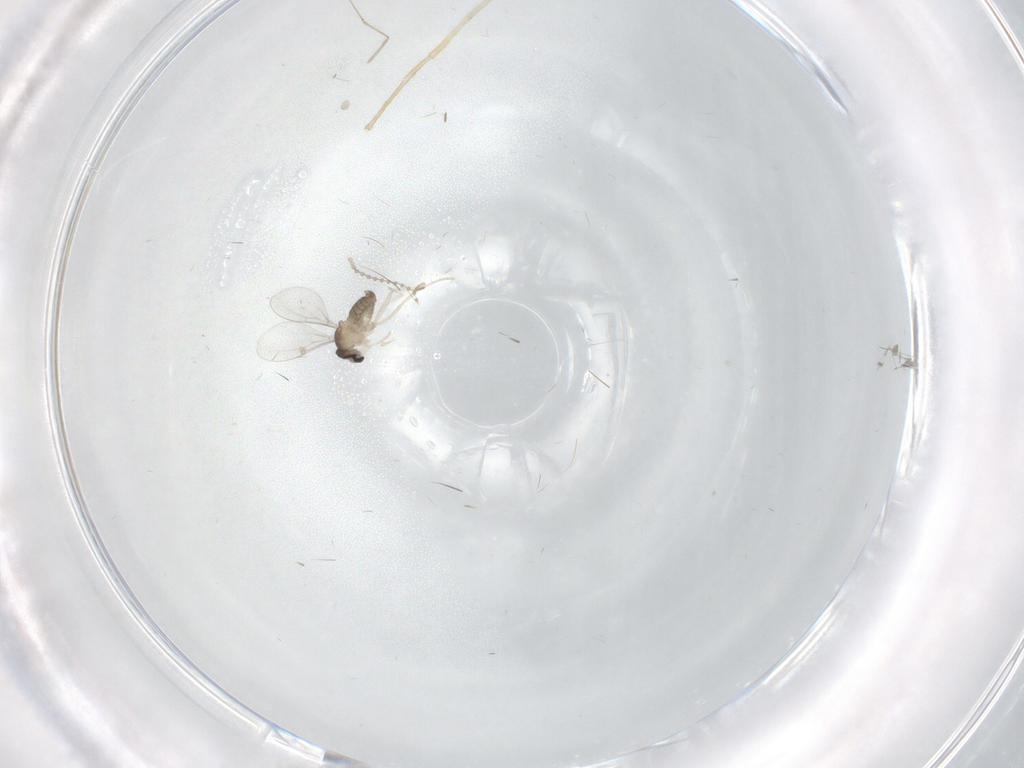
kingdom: Animalia
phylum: Arthropoda
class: Insecta
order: Diptera
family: Cecidomyiidae
